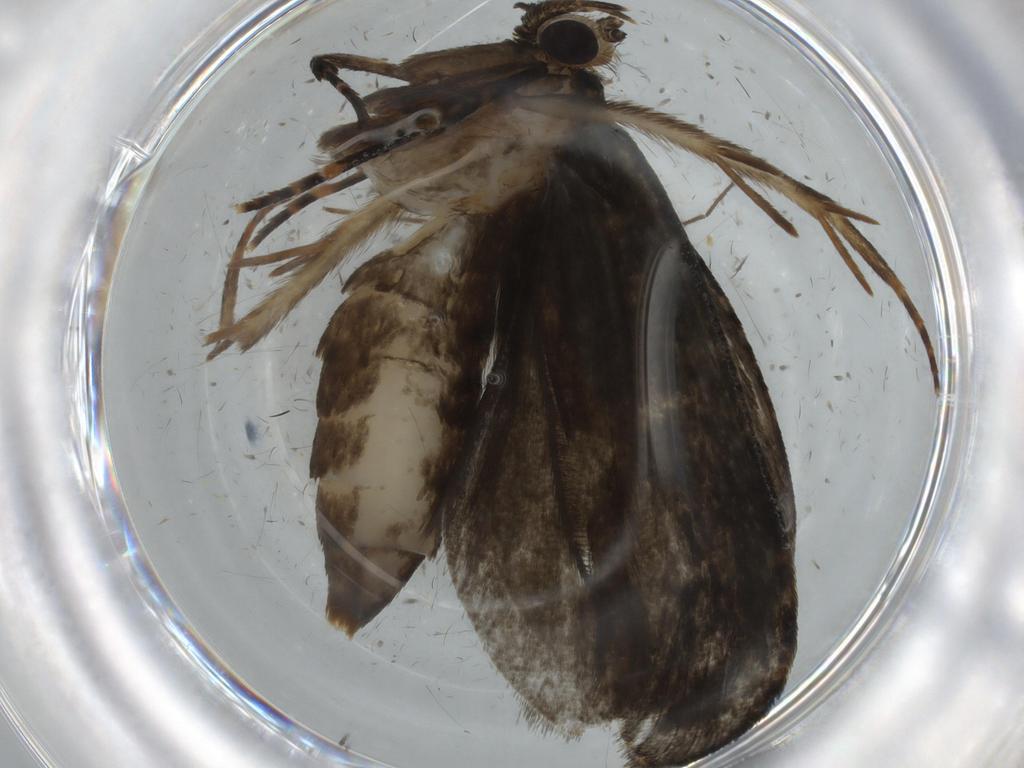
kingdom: Animalia
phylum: Arthropoda
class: Insecta
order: Lepidoptera
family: Tineidae
